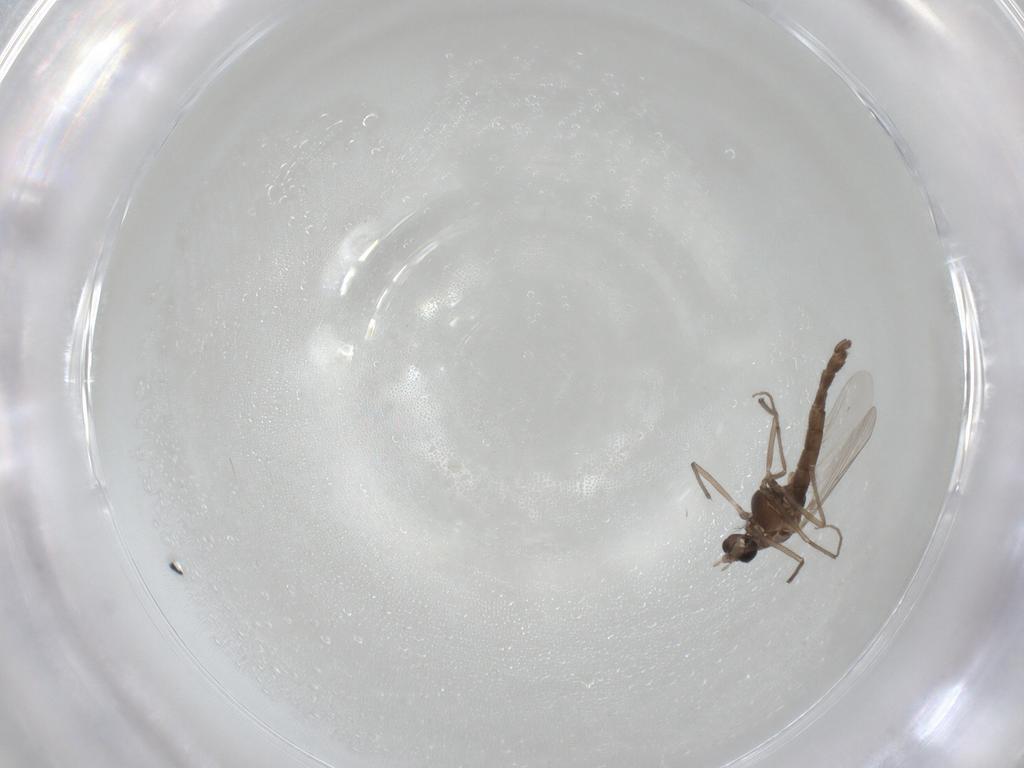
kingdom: Animalia
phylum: Arthropoda
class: Insecta
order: Diptera
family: Chironomidae
